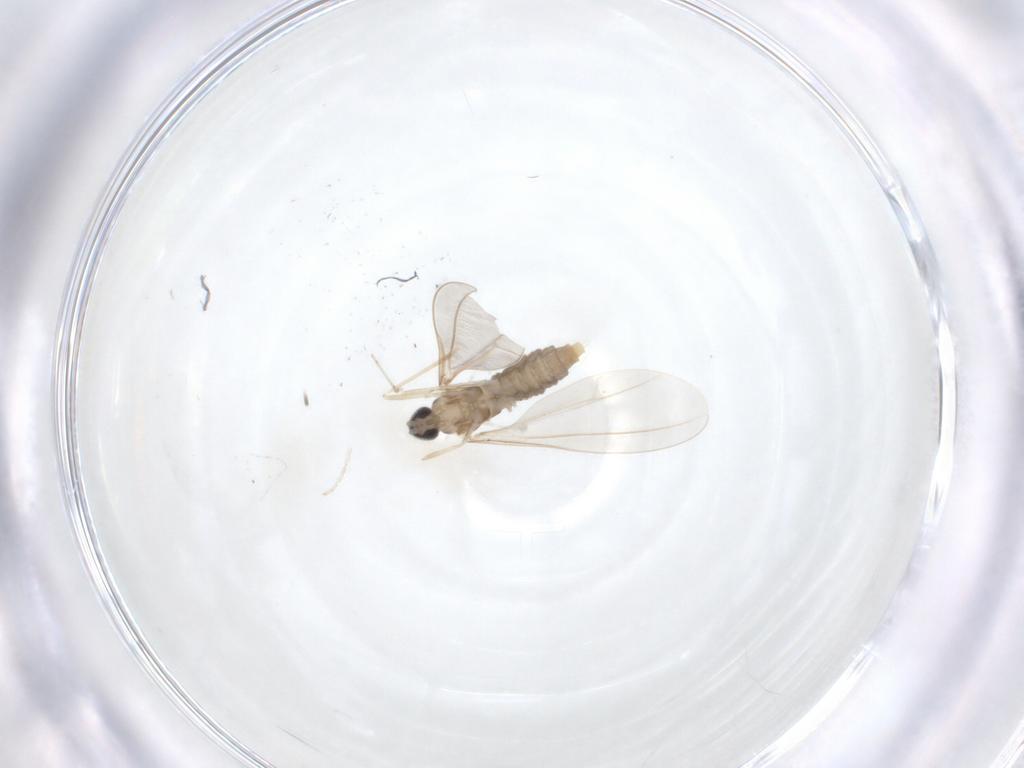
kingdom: Animalia
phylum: Arthropoda
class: Insecta
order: Diptera
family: Cecidomyiidae
